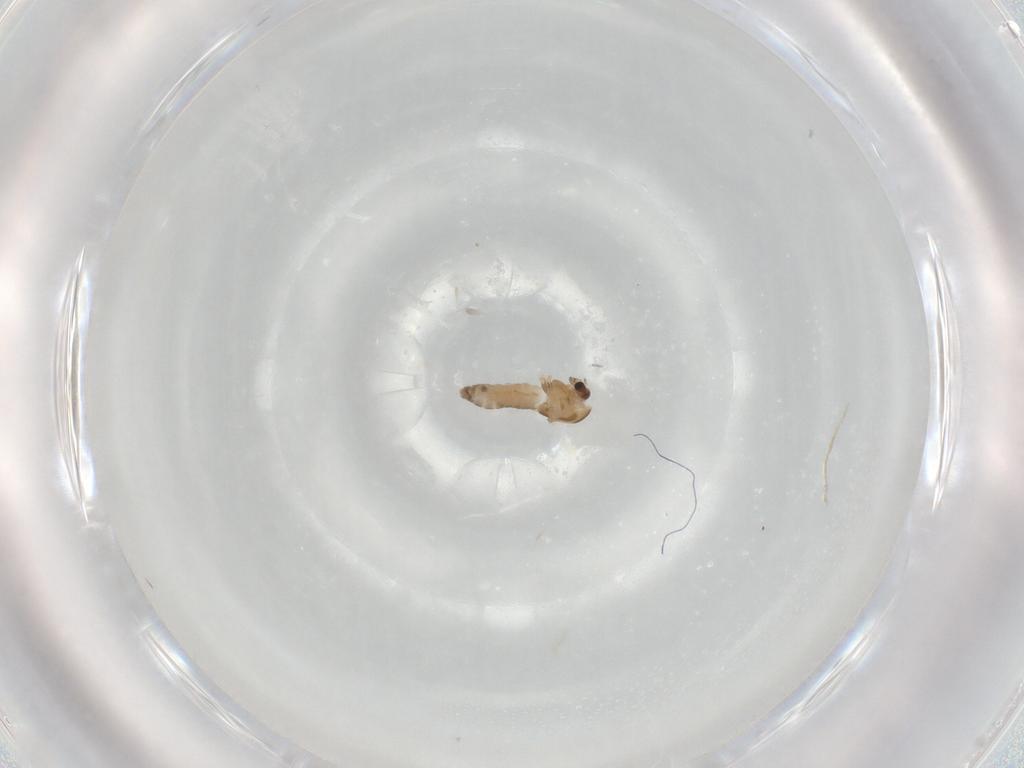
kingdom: Animalia
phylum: Arthropoda
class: Insecta
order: Diptera
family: Chironomidae
